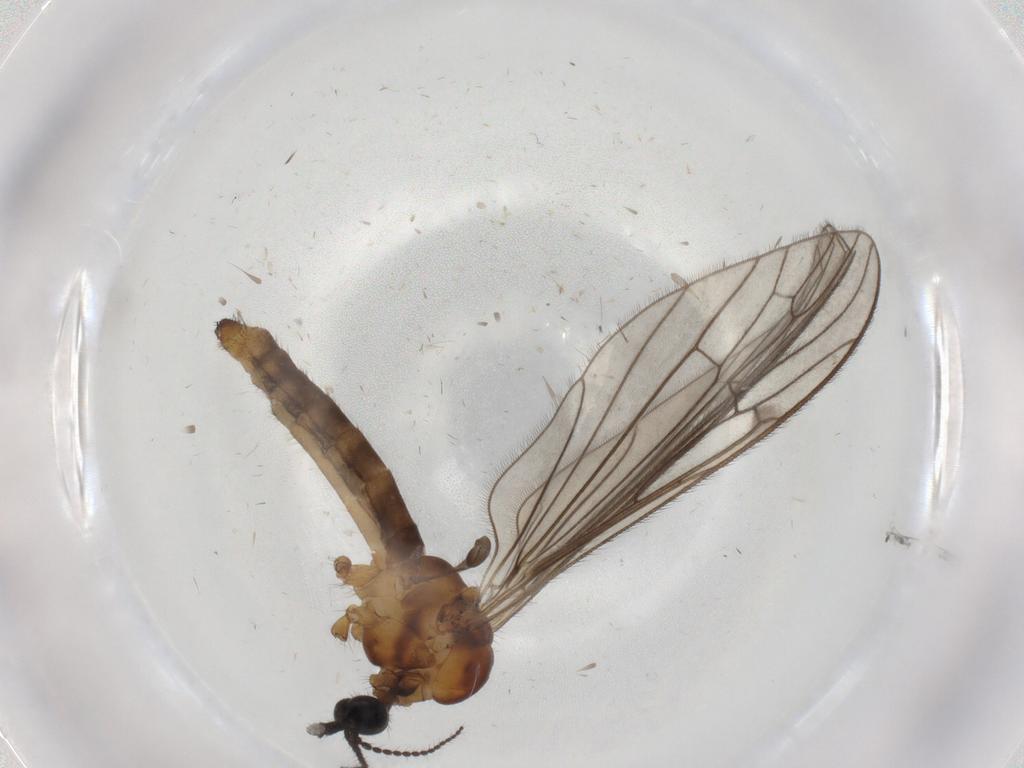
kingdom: Animalia
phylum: Arthropoda
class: Insecta
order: Diptera
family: Limoniidae
